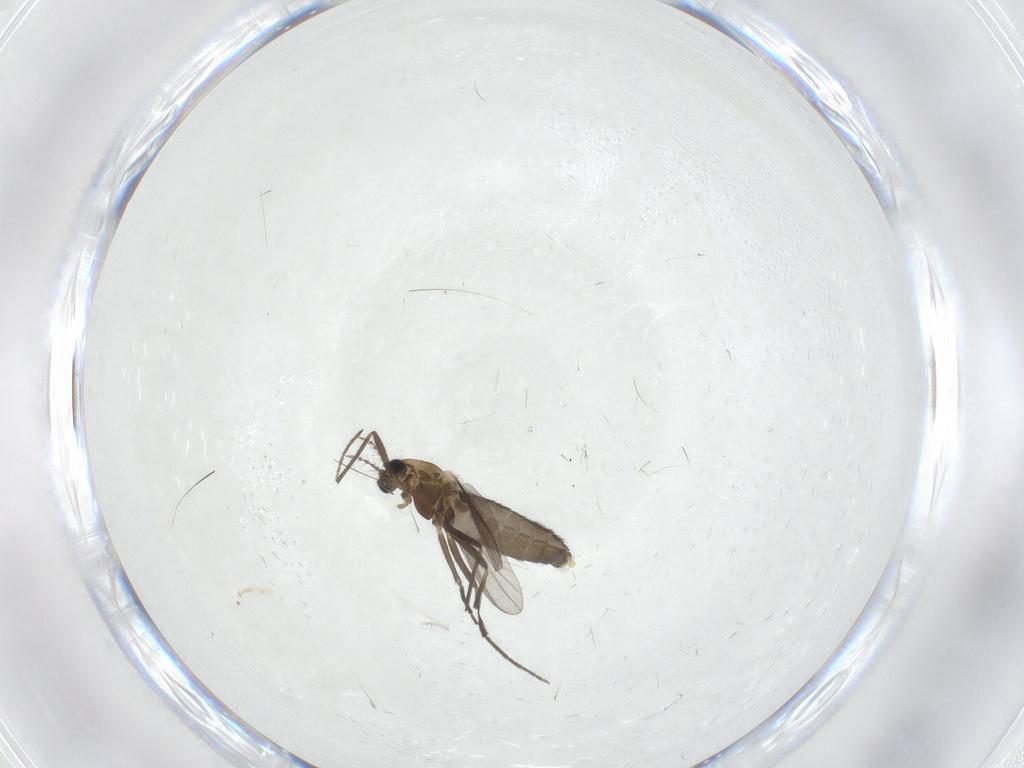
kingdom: Animalia
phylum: Arthropoda
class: Insecta
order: Diptera
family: Chironomidae
